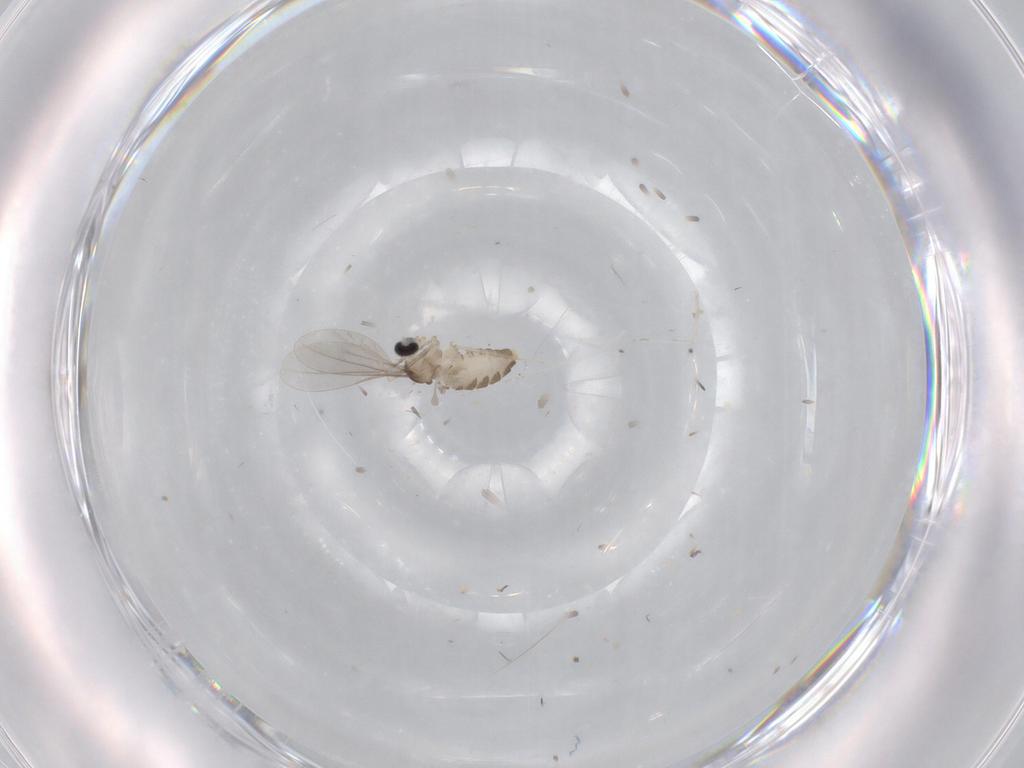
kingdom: Animalia
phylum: Arthropoda
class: Insecta
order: Diptera
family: Cecidomyiidae
